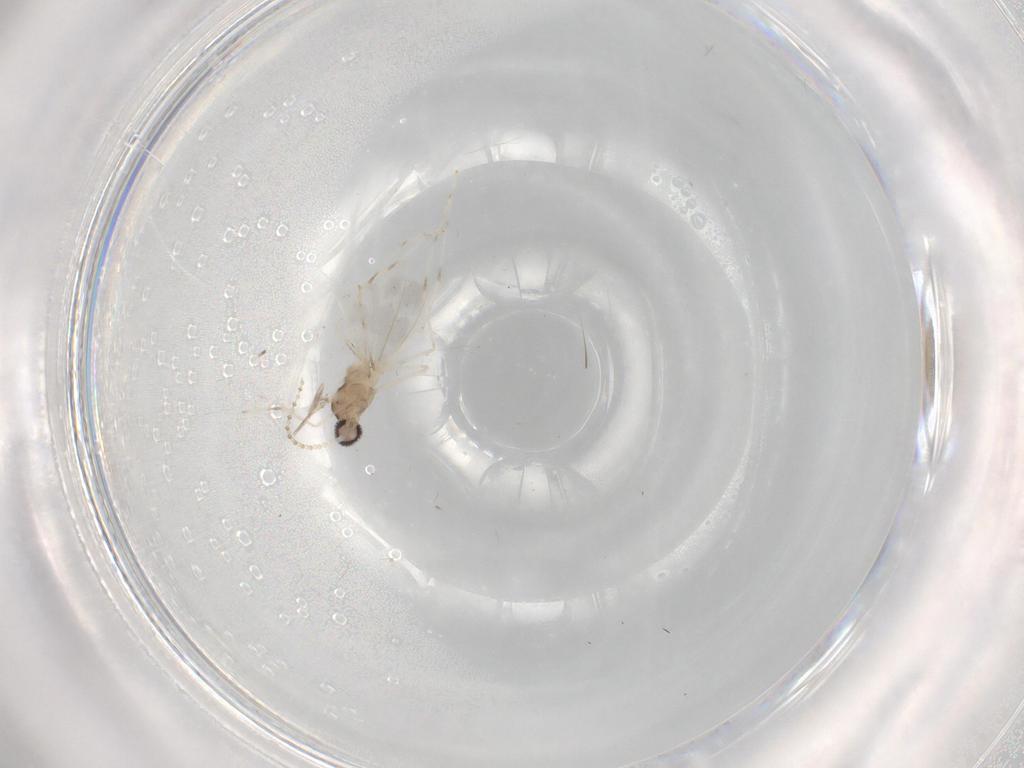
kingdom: Animalia
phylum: Arthropoda
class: Insecta
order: Diptera
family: Cecidomyiidae
